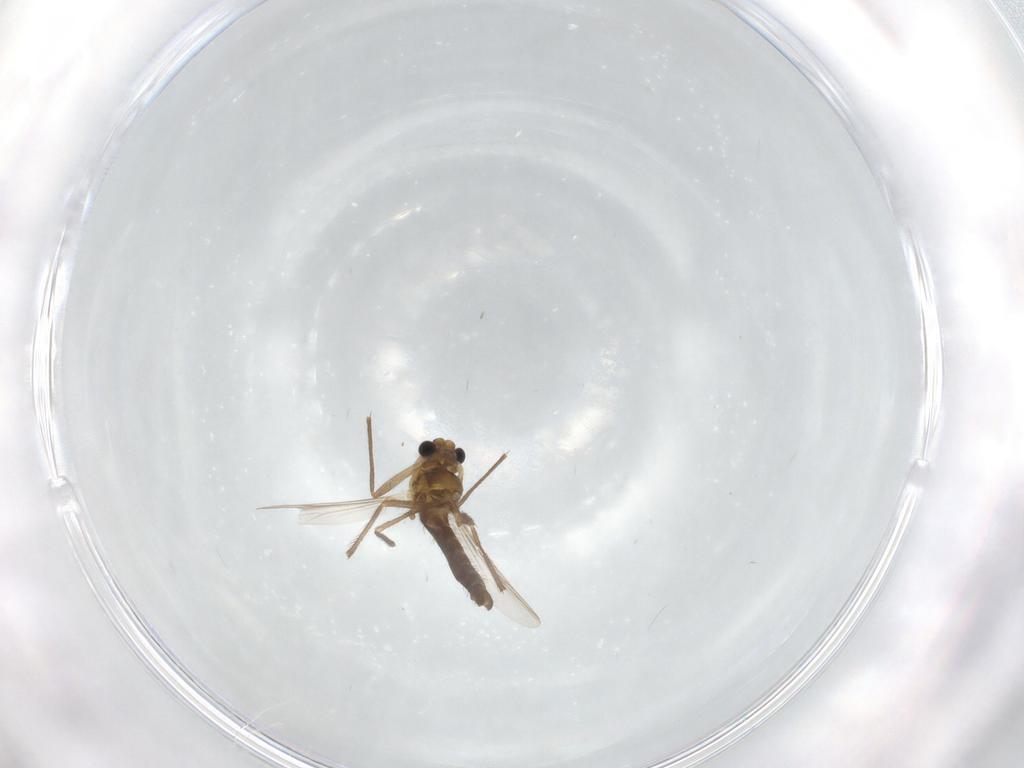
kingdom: Animalia
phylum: Arthropoda
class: Insecta
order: Diptera
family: Chironomidae
